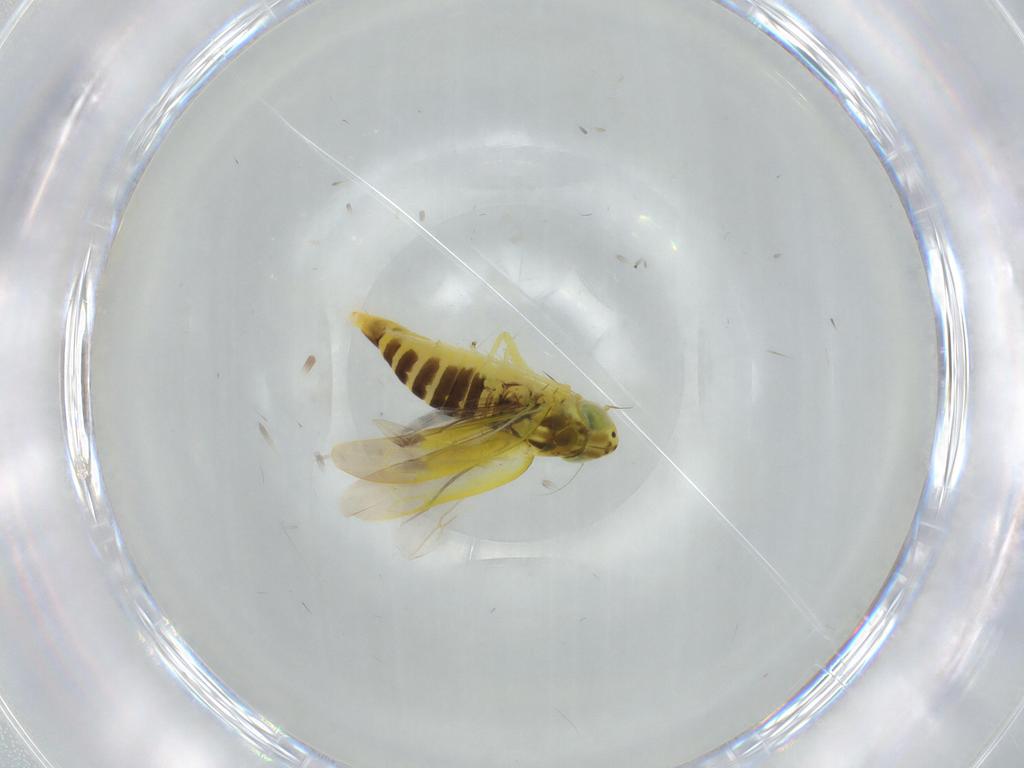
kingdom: Animalia
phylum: Arthropoda
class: Insecta
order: Hemiptera
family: Cicadellidae
